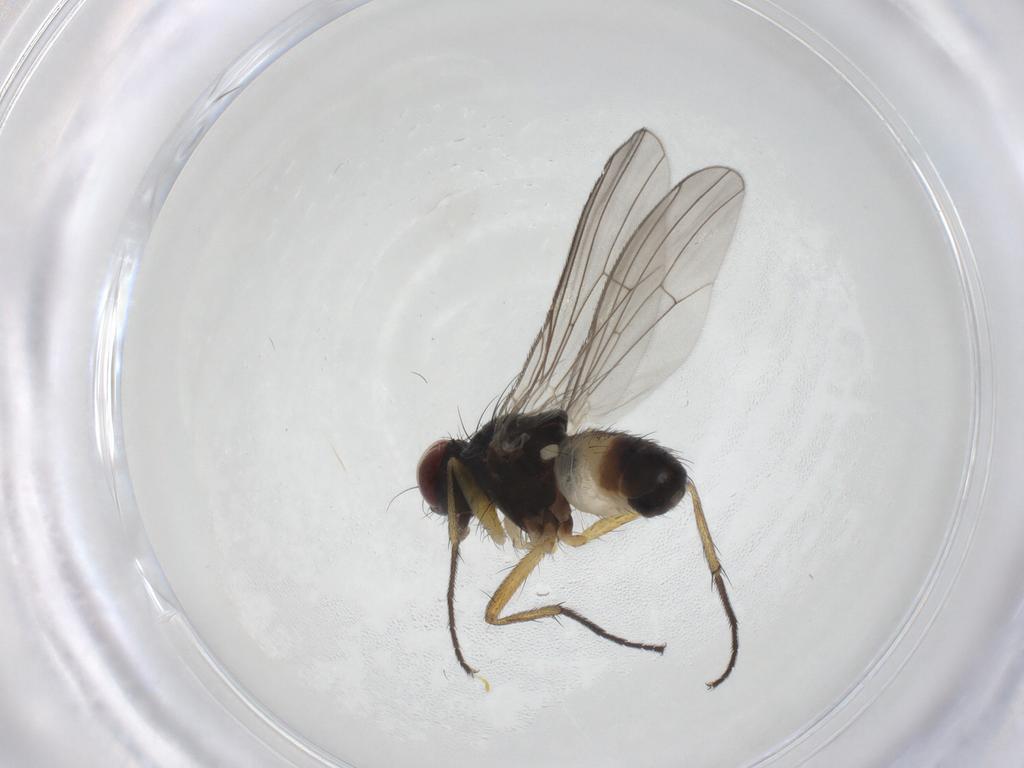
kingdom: Animalia
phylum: Arthropoda
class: Insecta
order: Diptera
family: Muscidae
